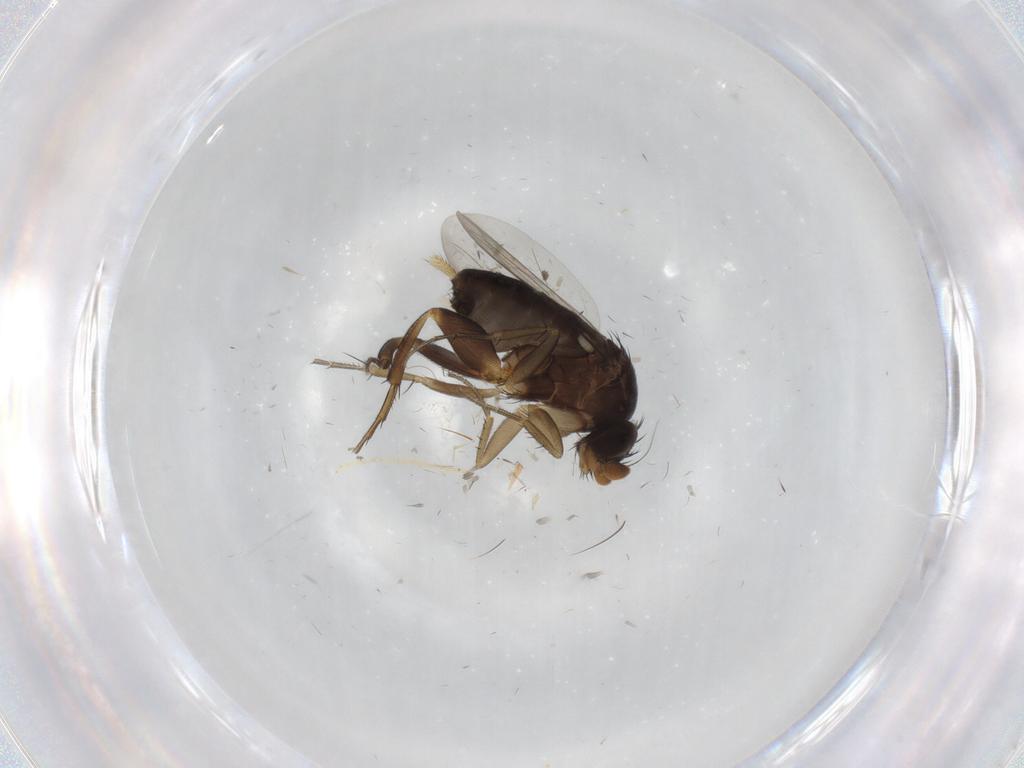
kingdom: Animalia
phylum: Arthropoda
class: Insecta
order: Diptera
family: Phoridae
